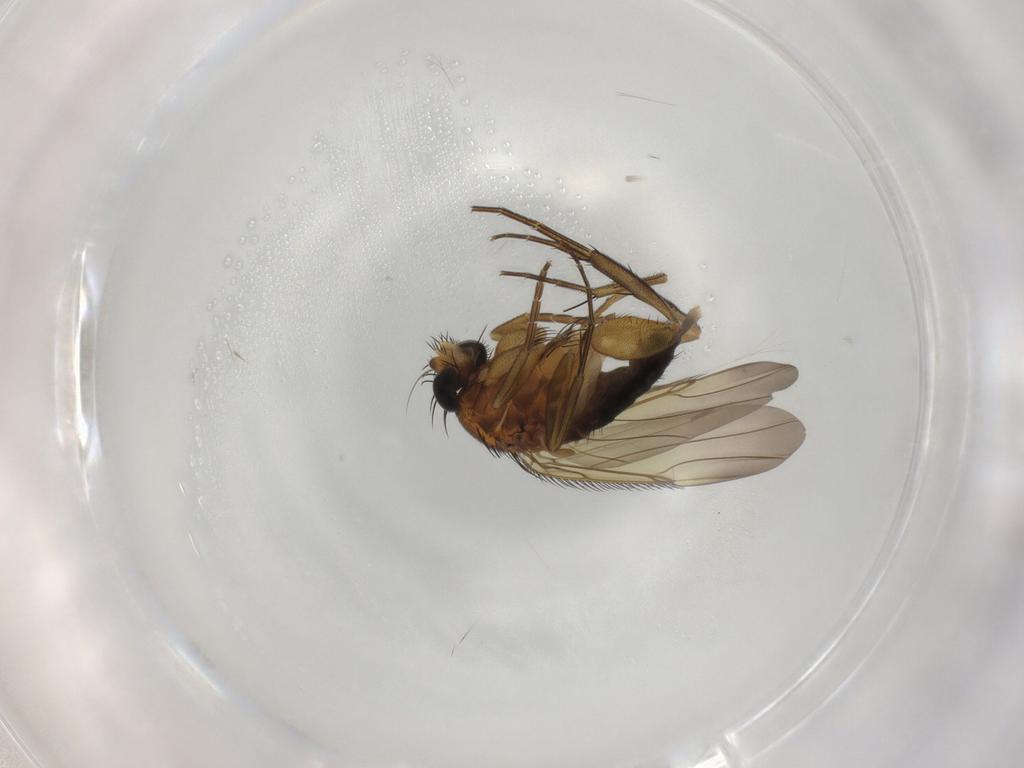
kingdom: Animalia
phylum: Arthropoda
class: Insecta
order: Diptera
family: Phoridae
